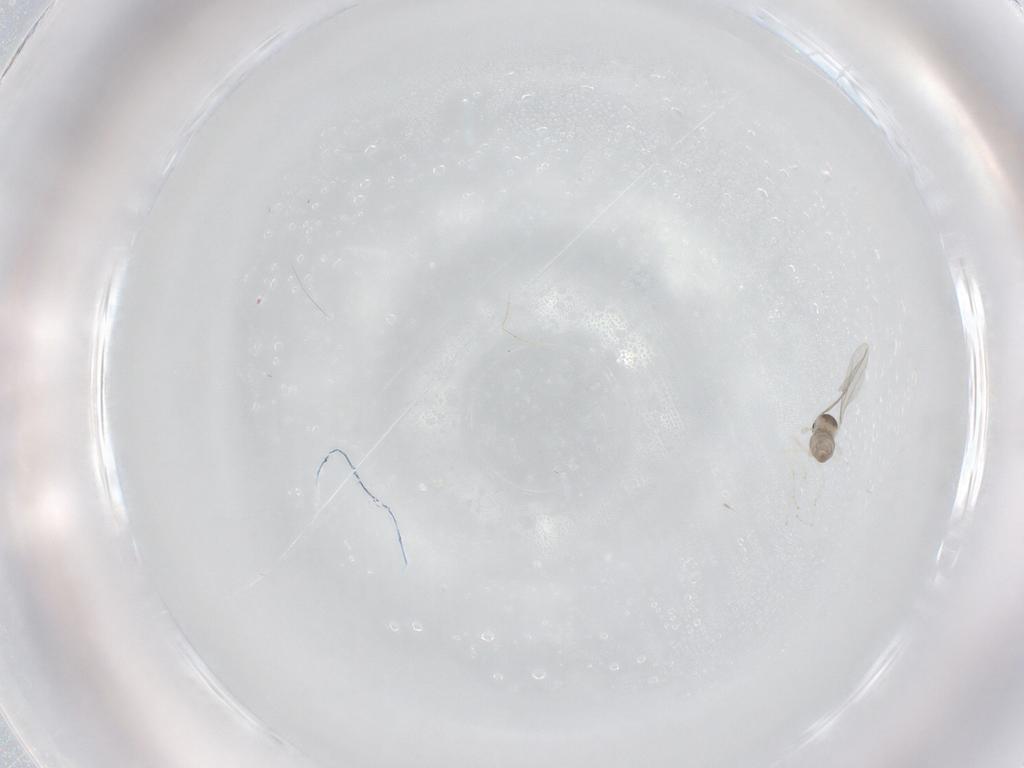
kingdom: Animalia
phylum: Arthropoda
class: Insecta
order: Diptera
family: Cecidomyiidae
